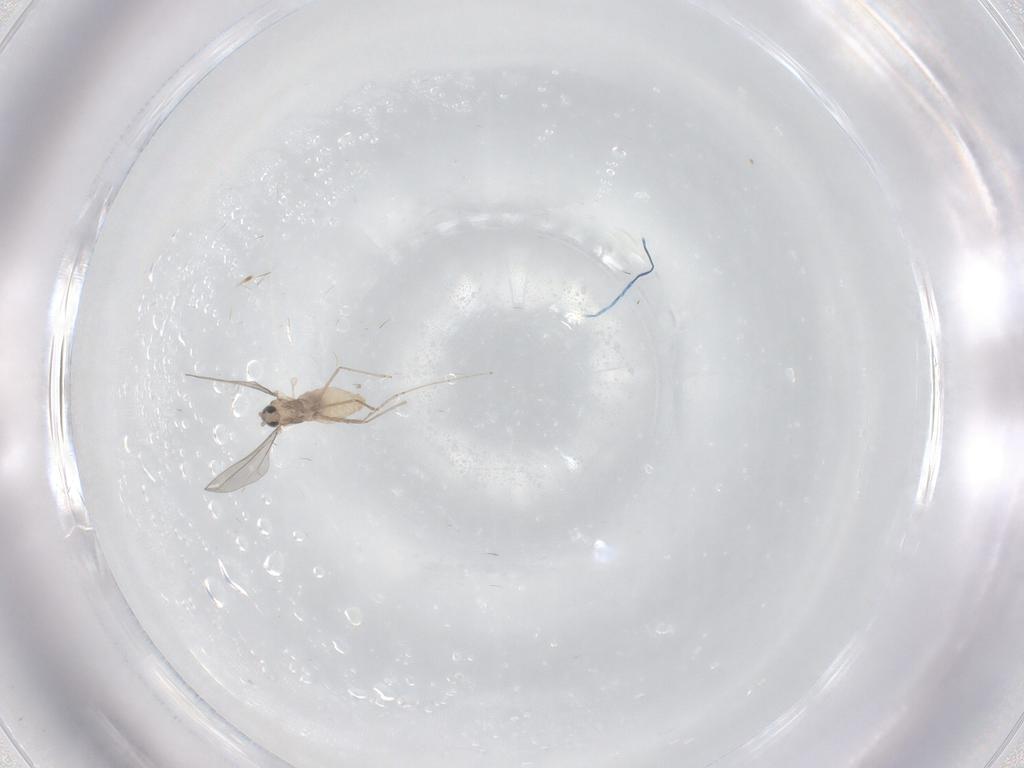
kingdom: Animalia
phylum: Arthropoda
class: Insecta
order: Diptera
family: Cecidomyiidae
